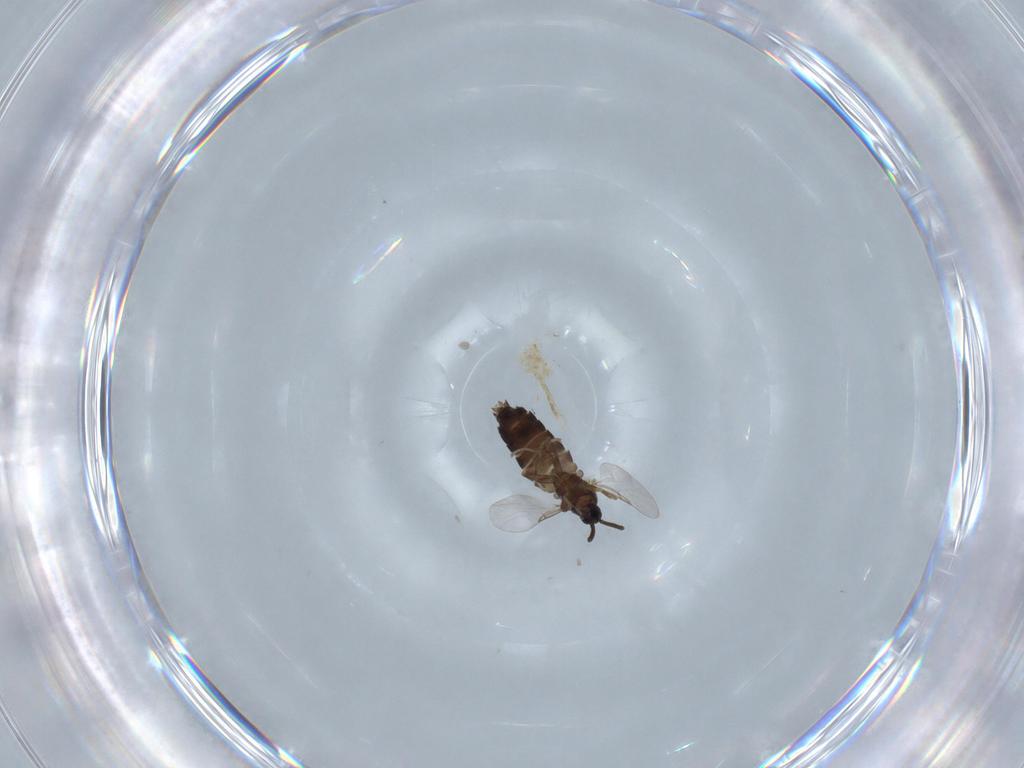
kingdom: Animalia
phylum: Arthropoda
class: Insecta
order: Diptera
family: Scatopsidae
